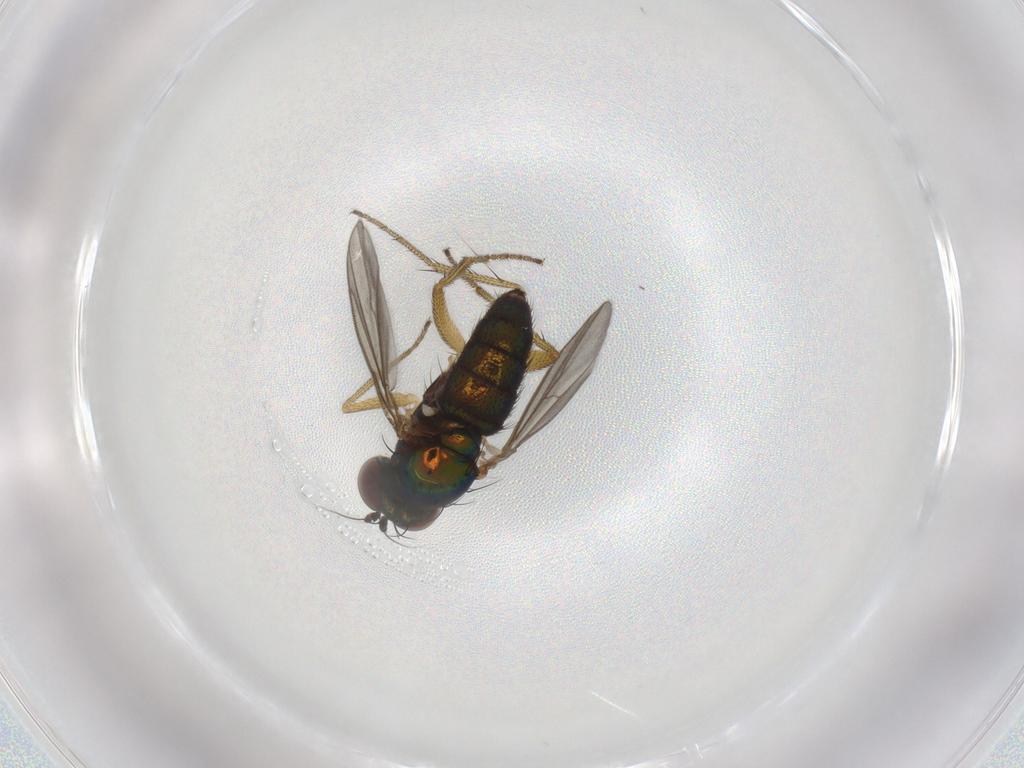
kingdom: Animalia
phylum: Arthropoda
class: Insecta
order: Diptera
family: Dolichopodidae
